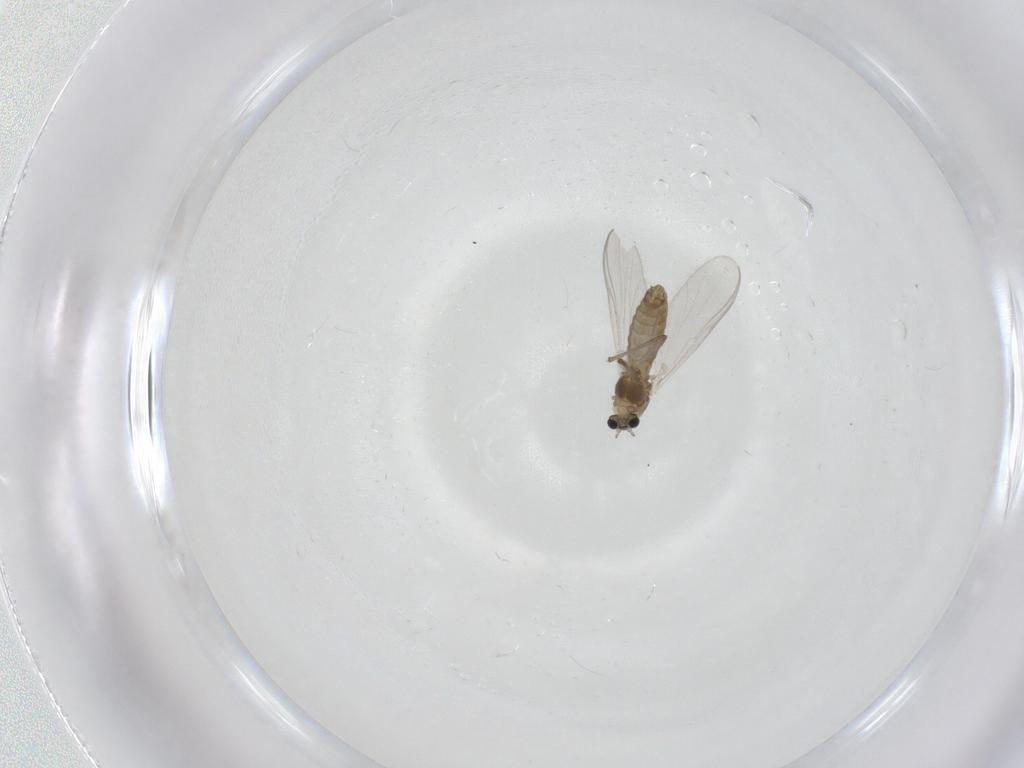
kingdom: Animalia
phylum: Arthropoda
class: Insecta
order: Diptera
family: Chironomidae
